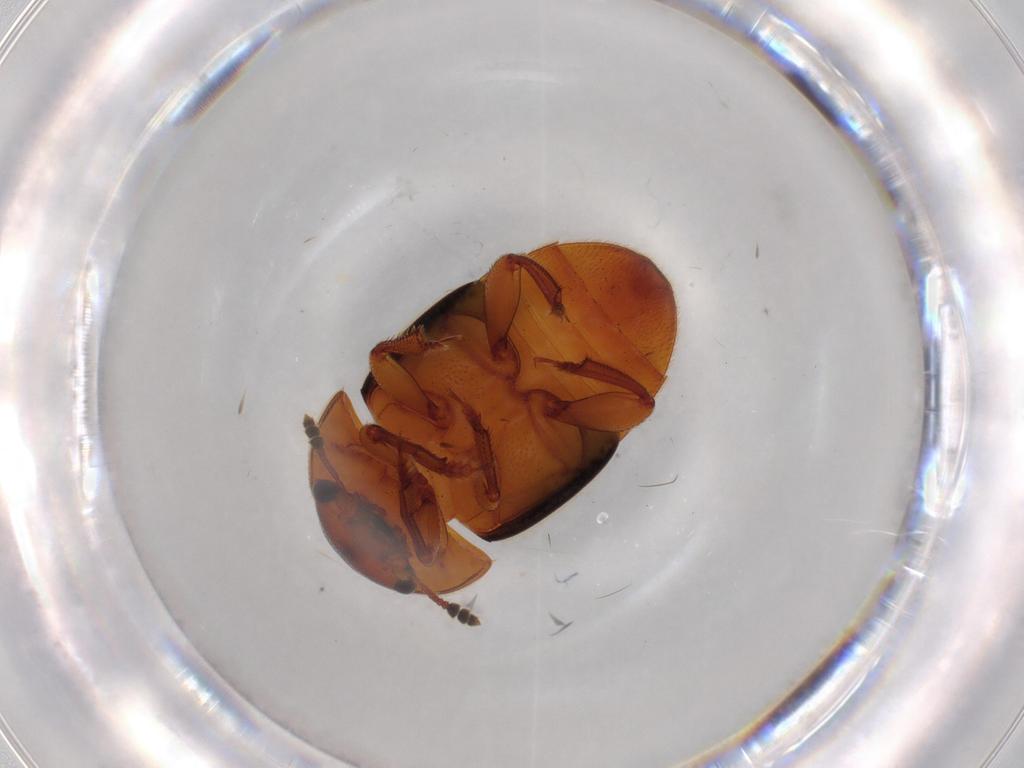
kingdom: Animalia
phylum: Arthropoda
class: Insecta
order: Coleoptera
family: Nitidulidae
